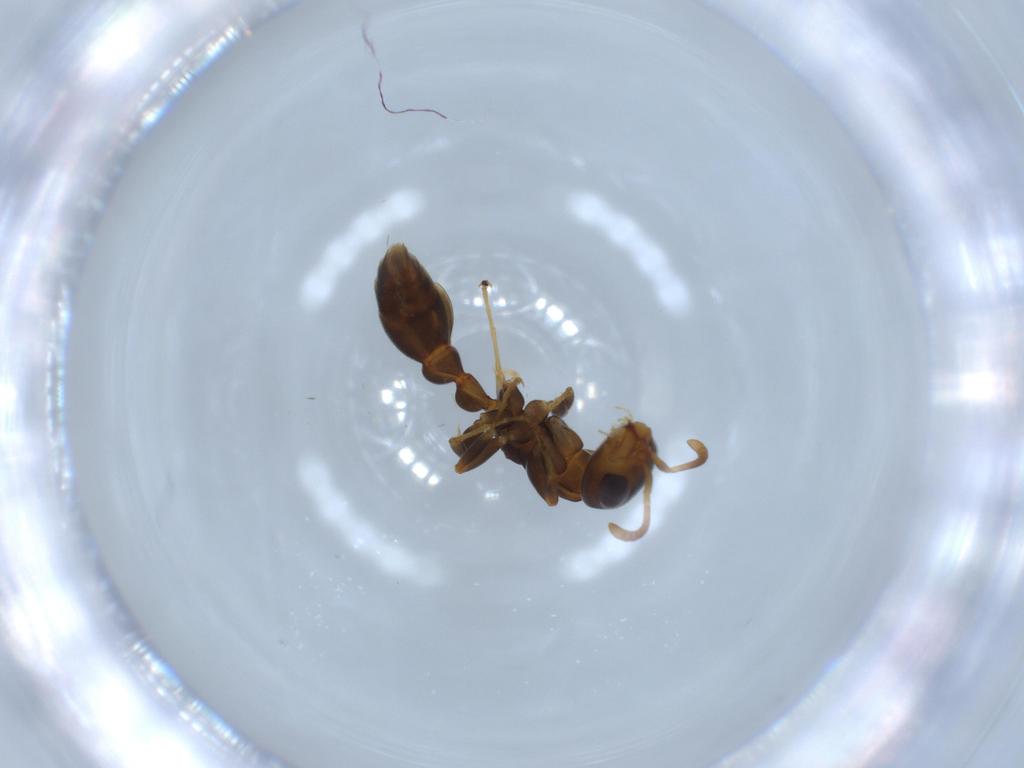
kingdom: Animalia
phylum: Arthropoda
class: Insecta
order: Hymenoptera
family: Formicidae
